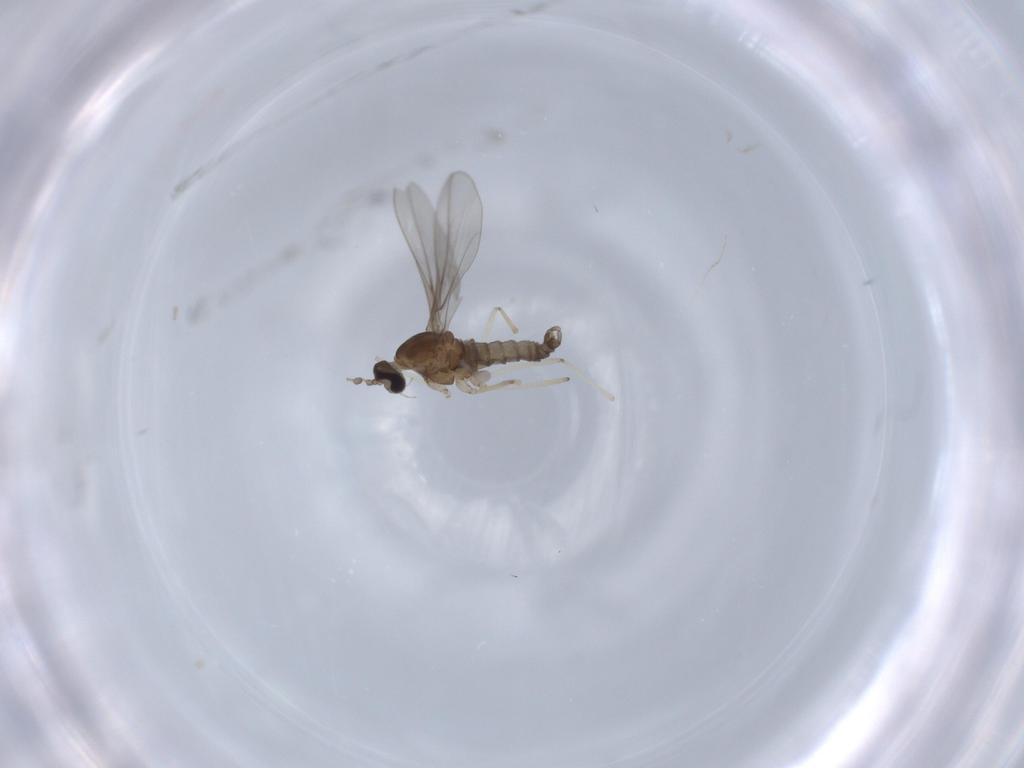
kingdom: Animalia
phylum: Arthropoda
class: Insecta
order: Diptera
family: Cecidomyiidae
